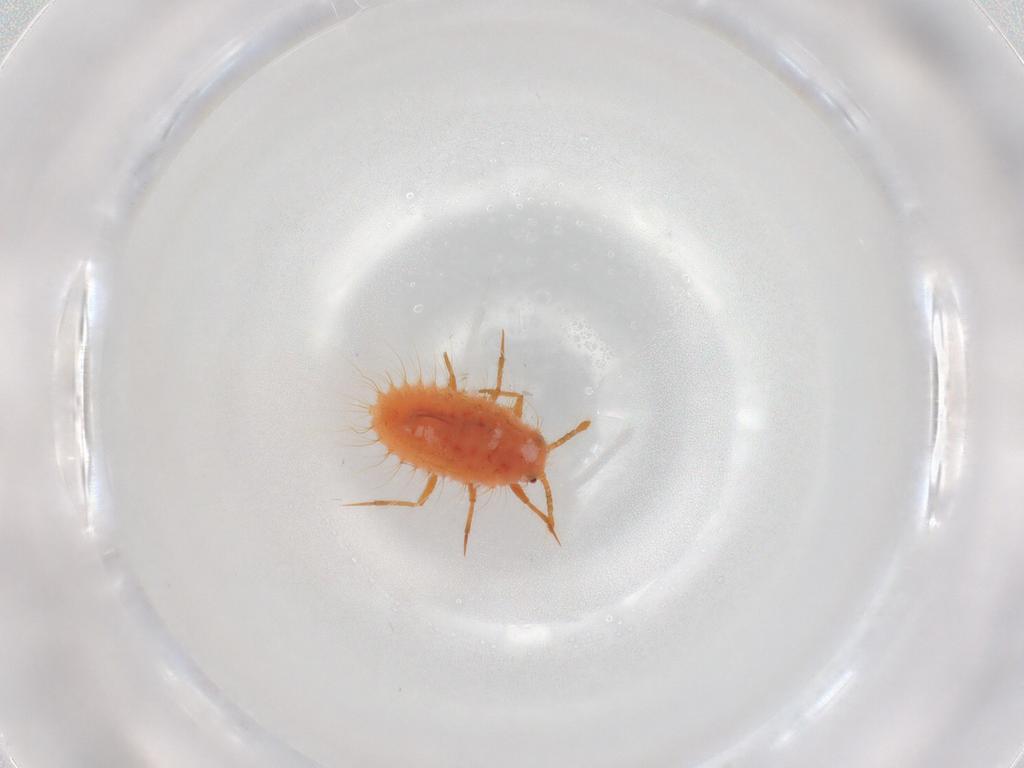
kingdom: Animalia
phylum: Arthropoda
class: Insecta
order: Hemiptera
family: Coccoidea_incertae_sedis
